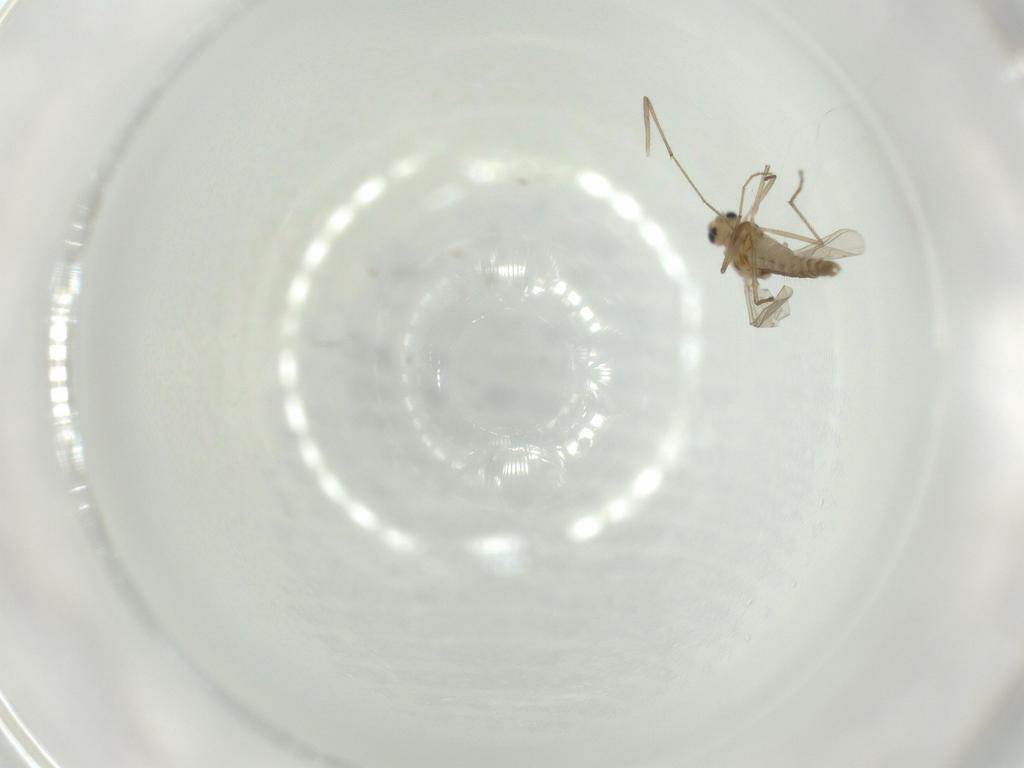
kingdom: Animalia
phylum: Arthropoda
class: Insecta
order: Diptera
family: Chironomidae
